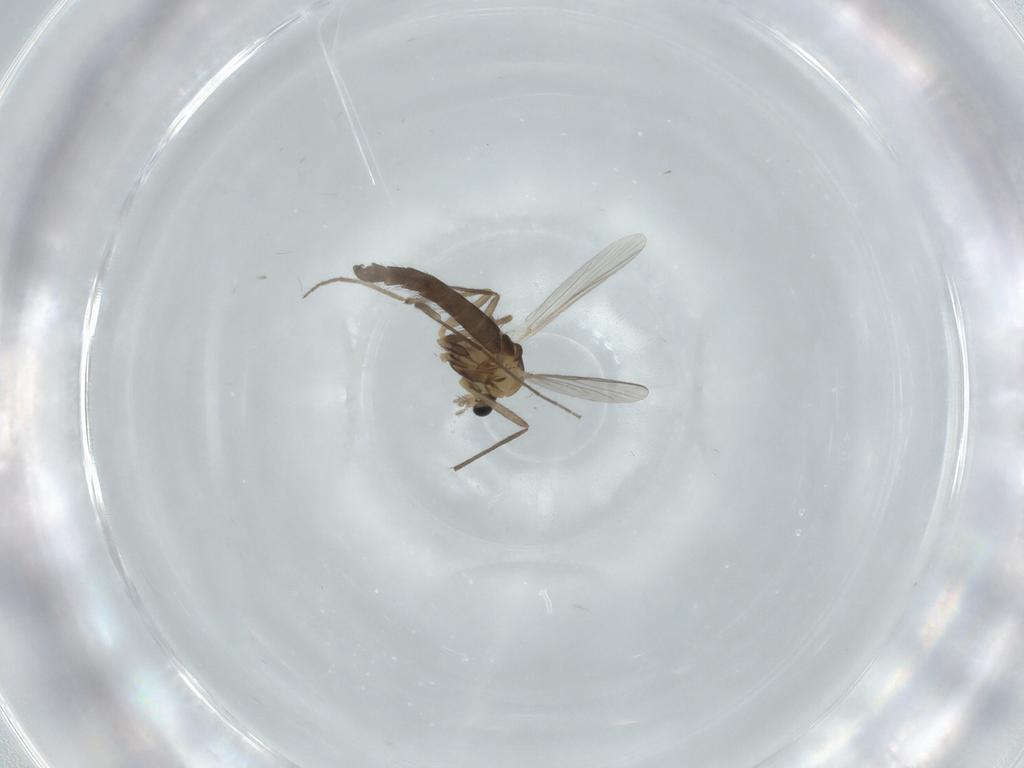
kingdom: Animalia
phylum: Arthropoda
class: Insecta
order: Diptera
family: Chironomidae
